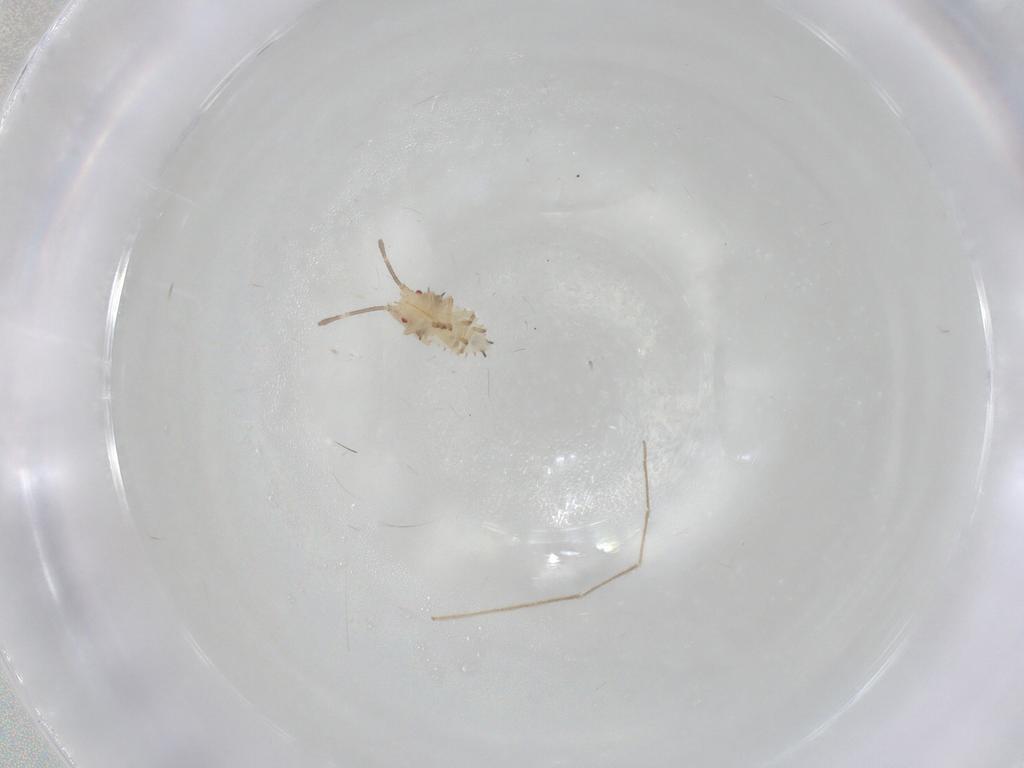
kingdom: Animalia
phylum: Arthropoda
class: Insecta
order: Hemiptera
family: Tingidae
